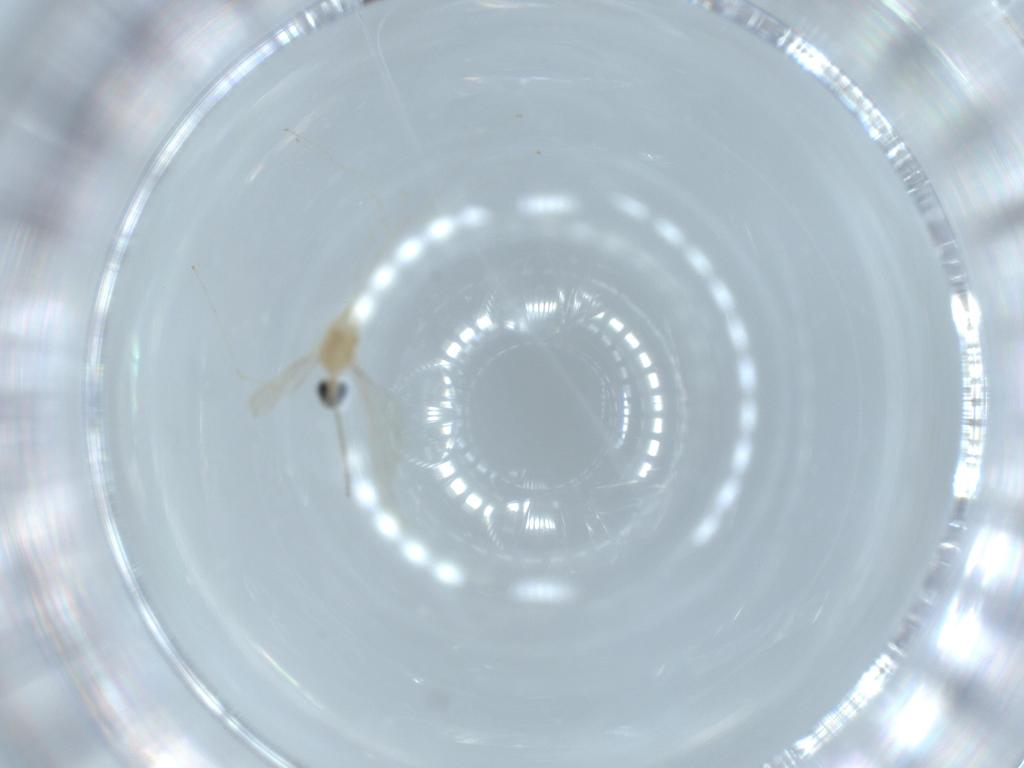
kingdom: Animalia
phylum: Arthropoda
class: Insecta
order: Diptera
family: Cecidomyiidae
